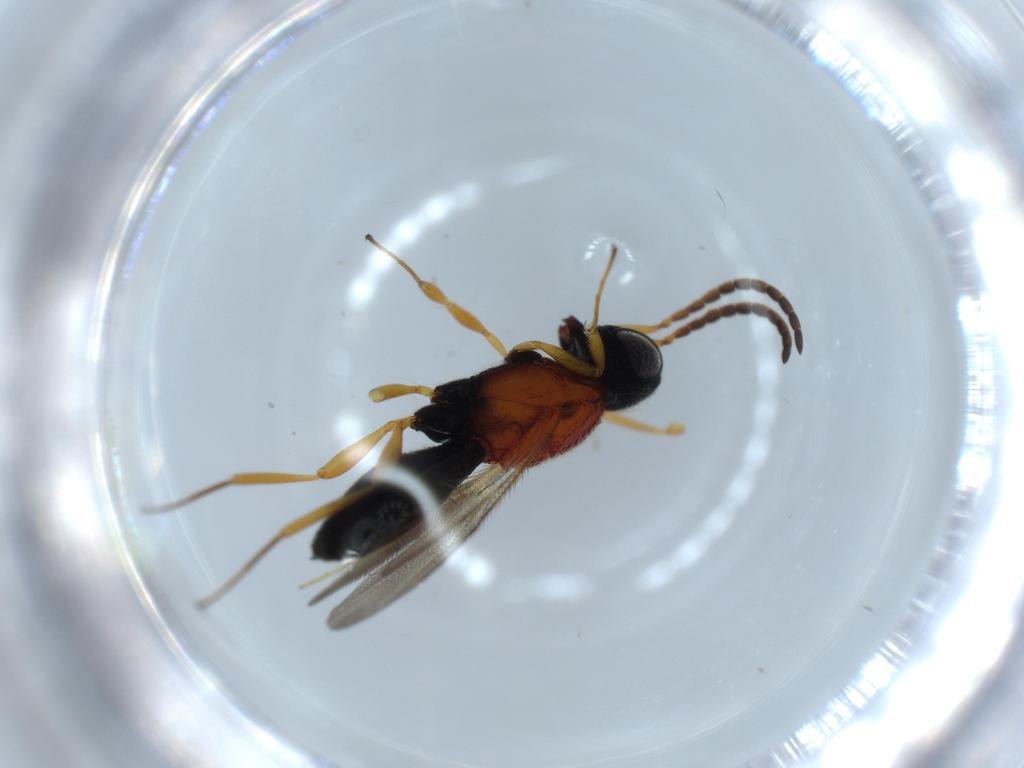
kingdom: Animalia
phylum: Arthropoda
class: Insecta
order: Hymenoptera
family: Scelionidae
